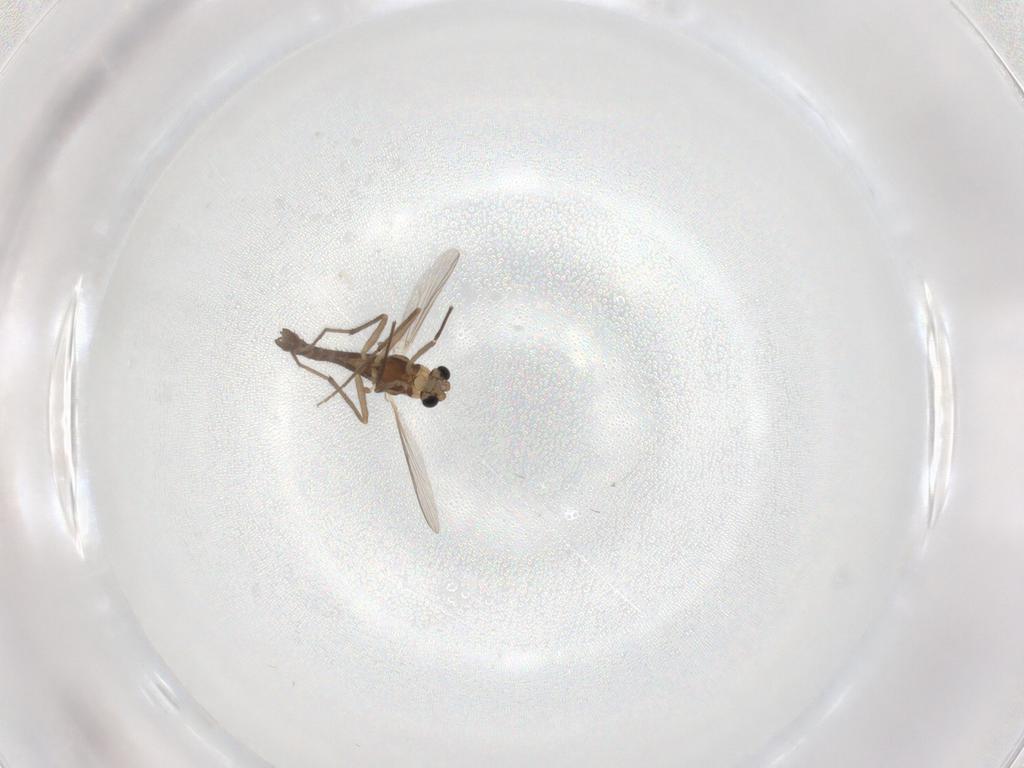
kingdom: Animalia
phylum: Arthropoda
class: Insecta
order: Diptera
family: Chironomidae
